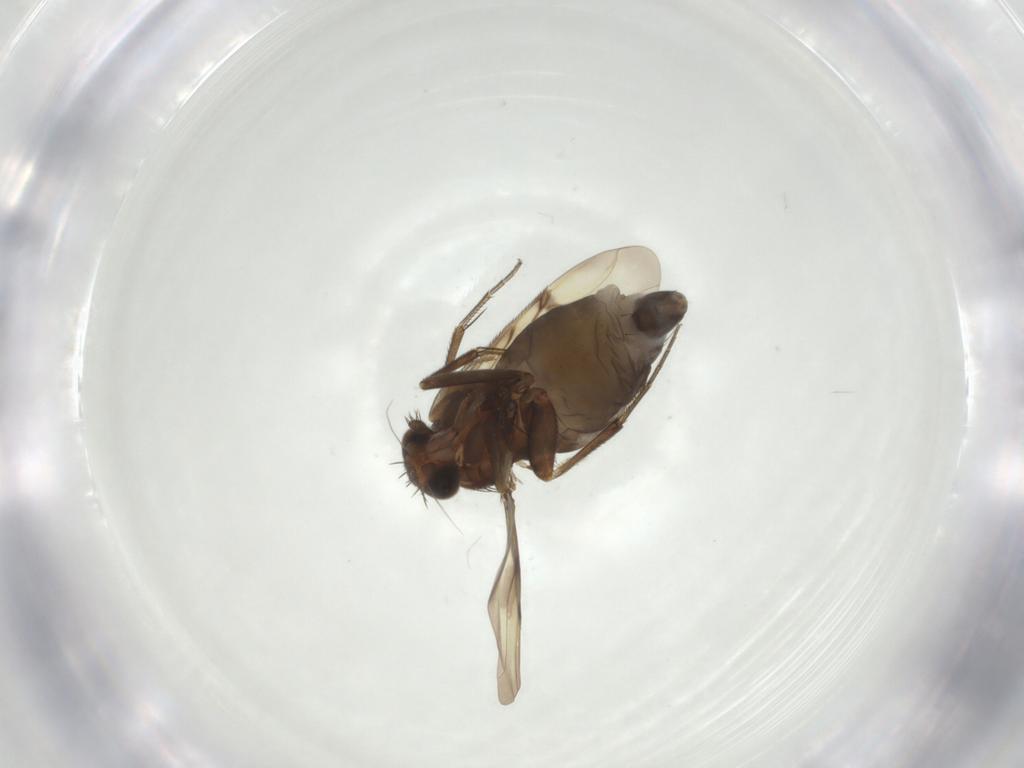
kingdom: Animalia
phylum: Arthropoda
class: Insecta
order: Diptera
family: Phoridae
